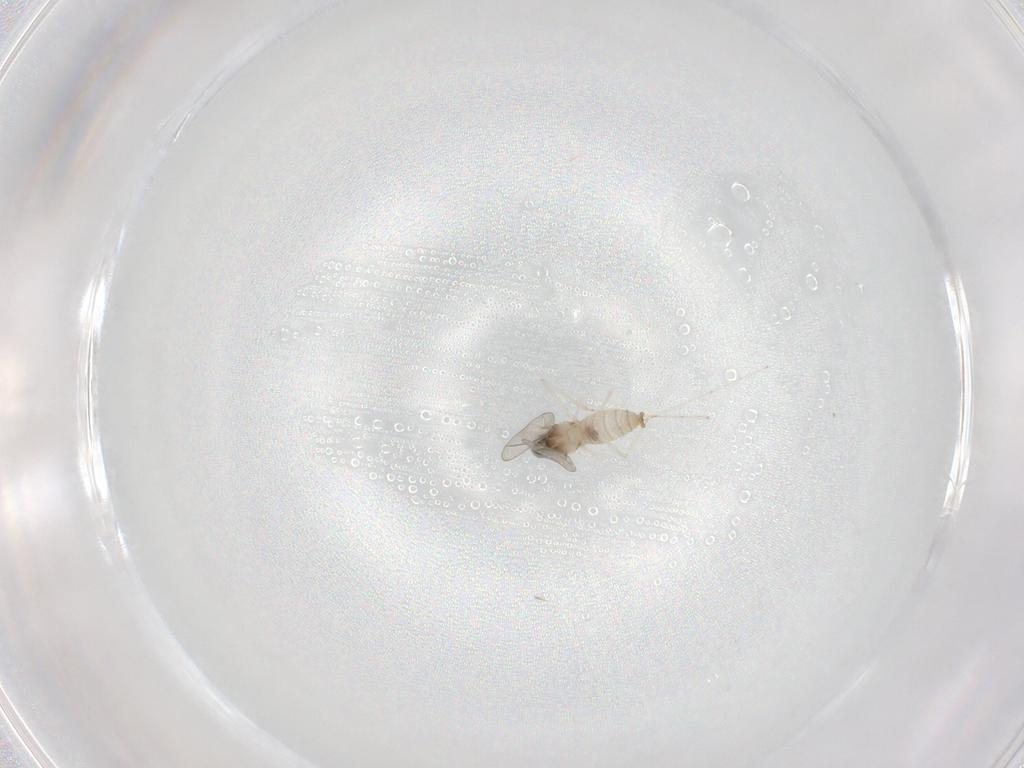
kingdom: Animalia
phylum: Arthropoda
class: Insecta
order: Diptera
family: Cecidomyiidae
